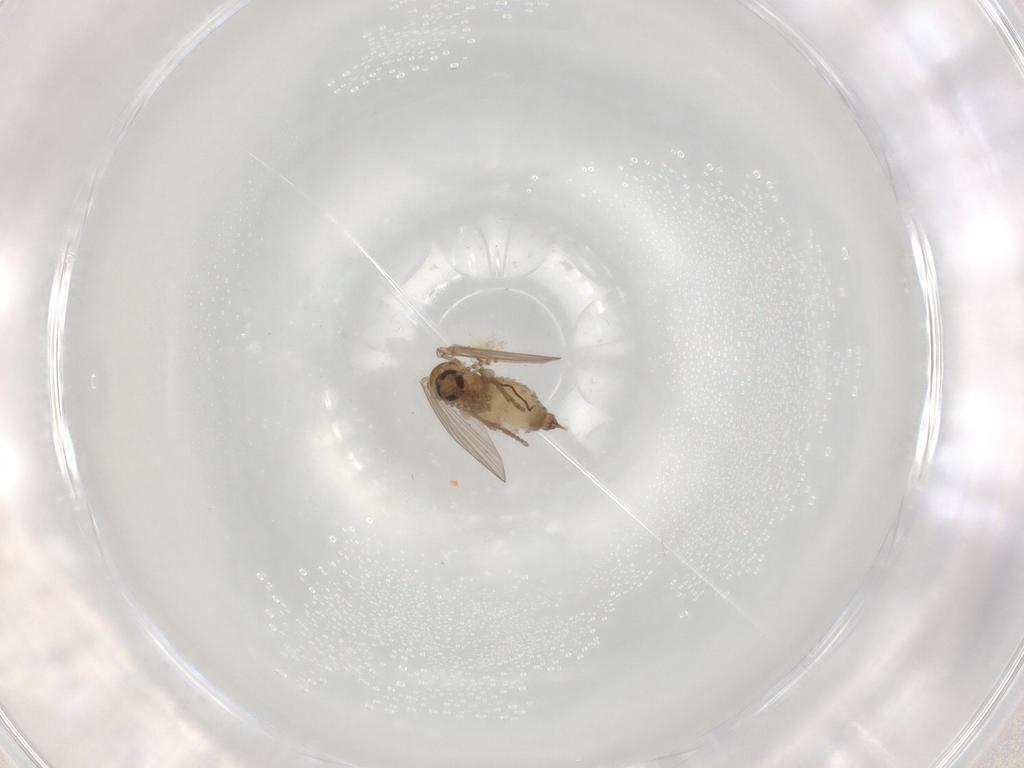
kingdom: Animalia
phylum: Arthropoda
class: Insecta
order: Diptera
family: Psychodidae
